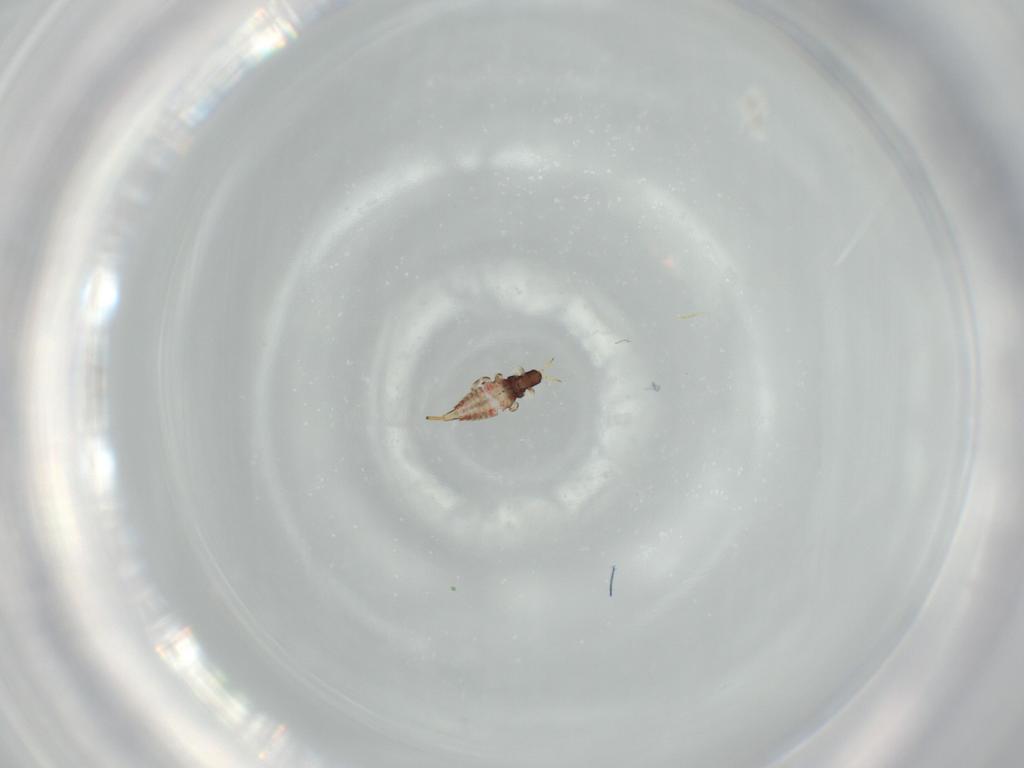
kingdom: Animalia
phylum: Arthropoda
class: Insecta
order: Thysanoptera
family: Phlaeothripidae
